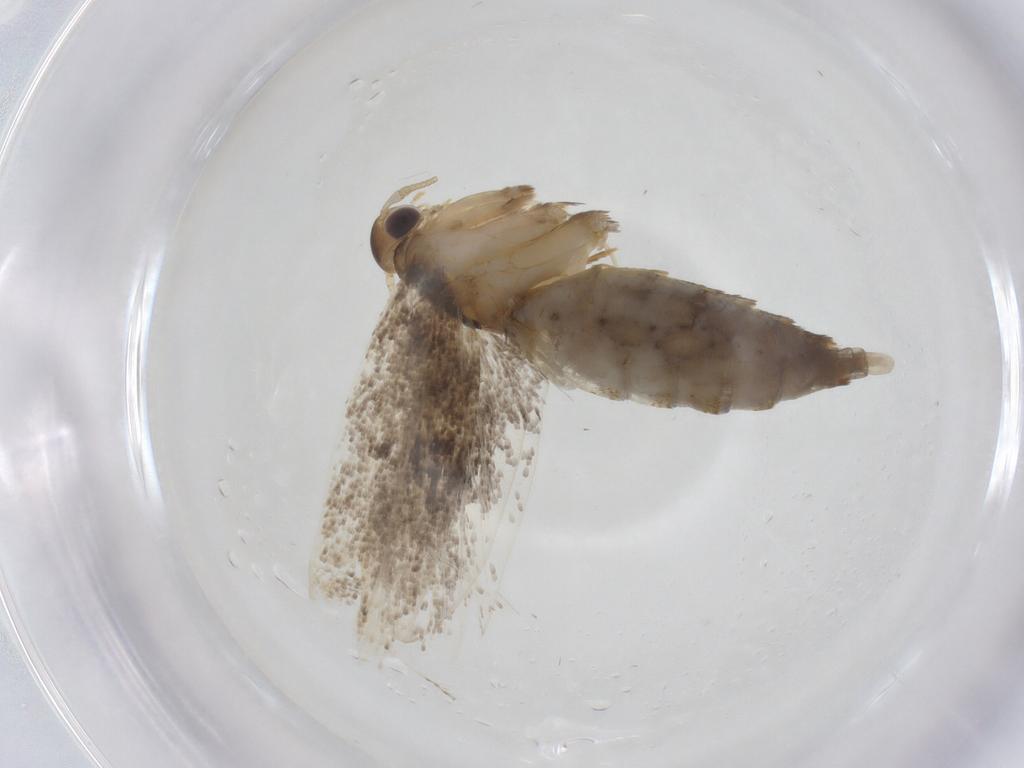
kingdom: Animalia
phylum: Arthropoda
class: Insecta
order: Lepidoptera
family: Lecithoceridae
